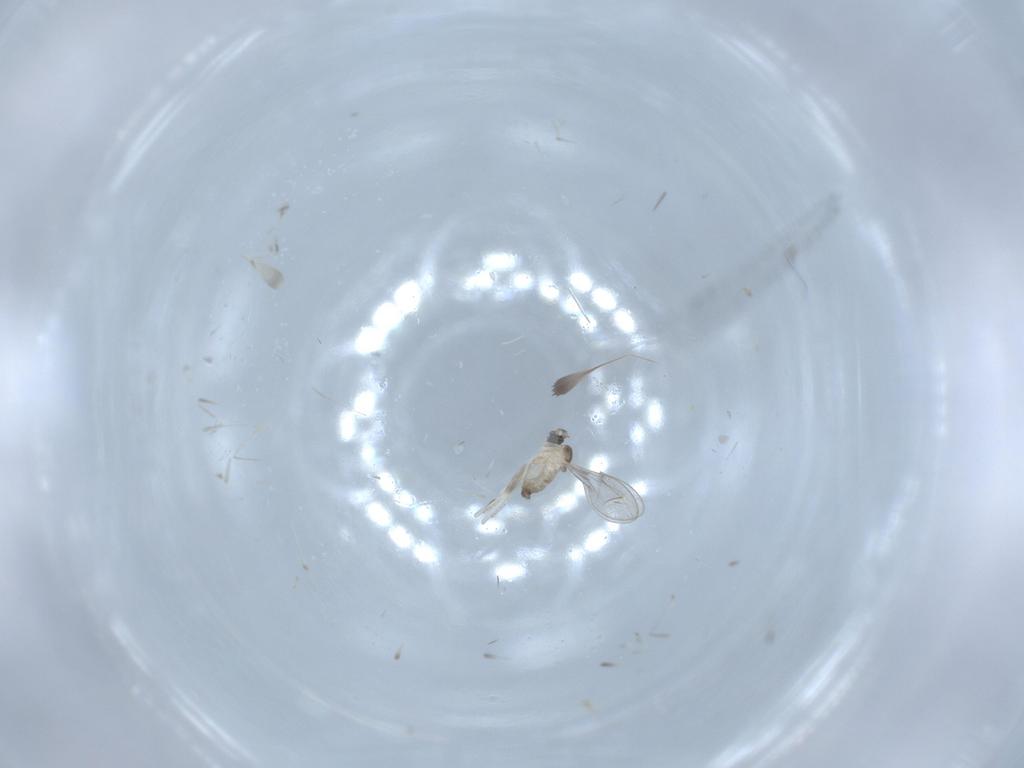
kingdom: Animalia
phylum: Arthropoda
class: Insecta
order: Diptera
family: Cecidomyiidae
